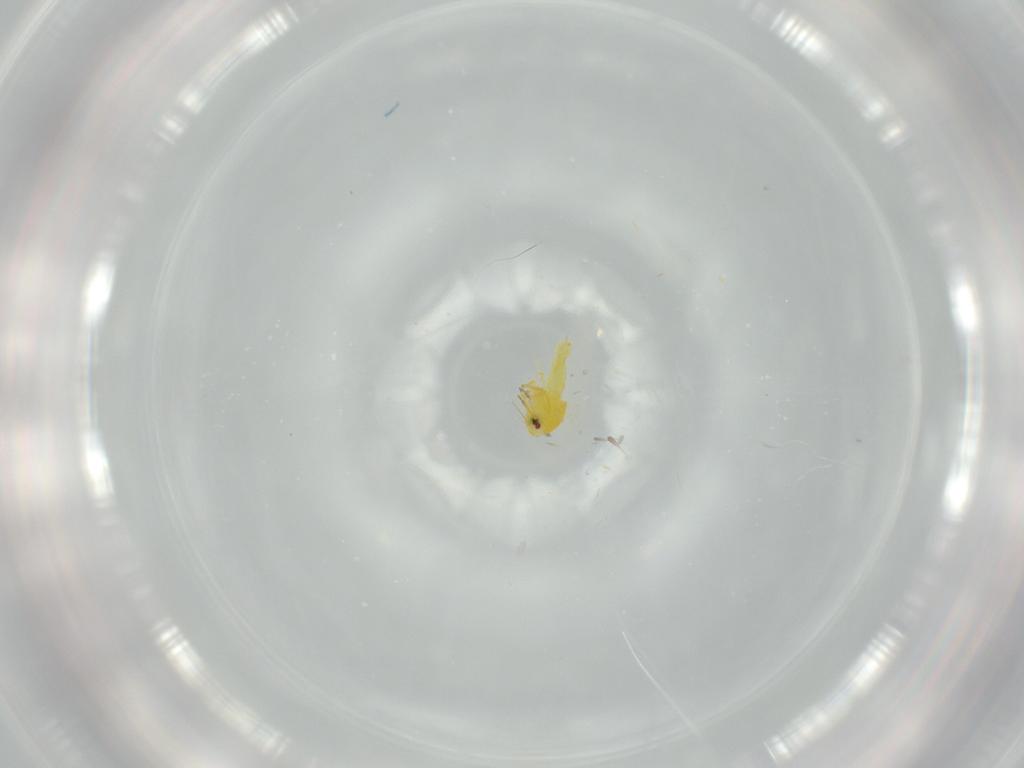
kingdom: Animalia
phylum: Arthropoda
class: Insecta
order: Hemiptera
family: Aleyrodidae
